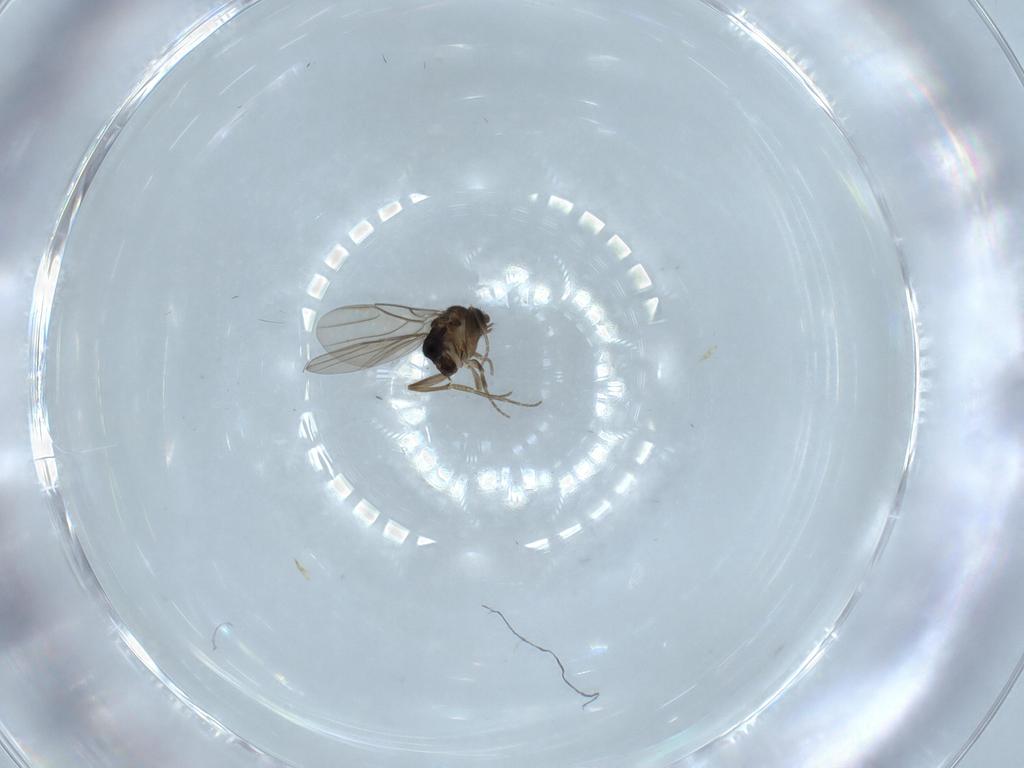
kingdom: Animalia
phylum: Arthropoda
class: Insecta
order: Diptera
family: Phoridae
